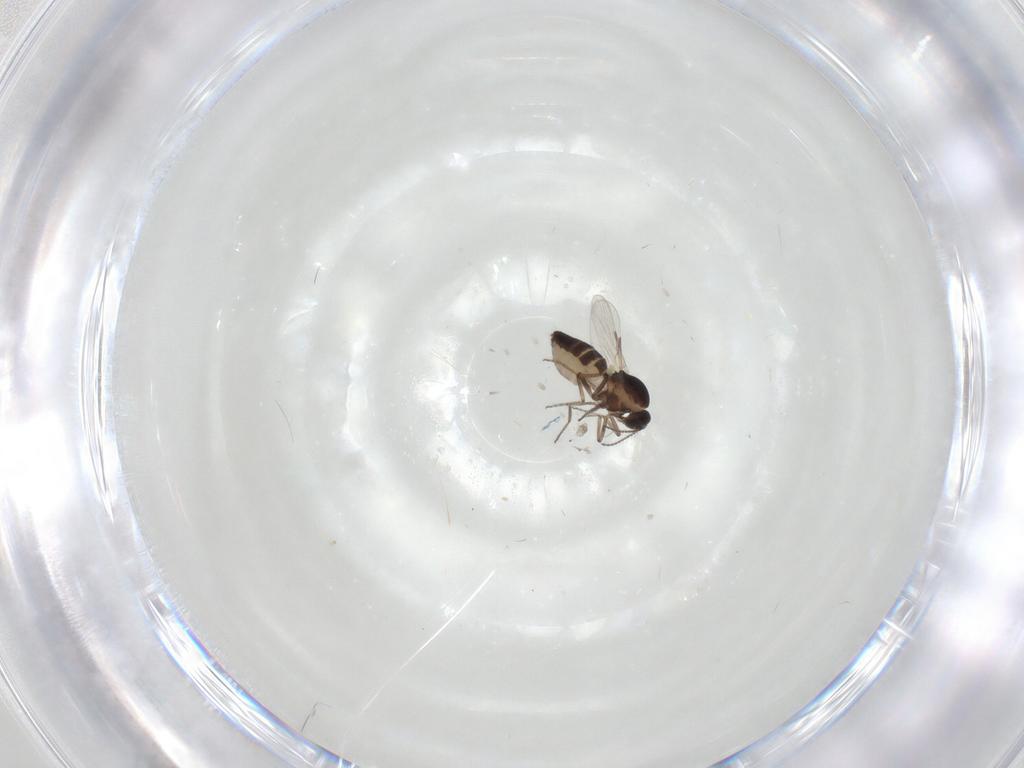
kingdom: Animalia
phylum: Arthropoda
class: Insecta
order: Diptera
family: Ceratopogonidae
